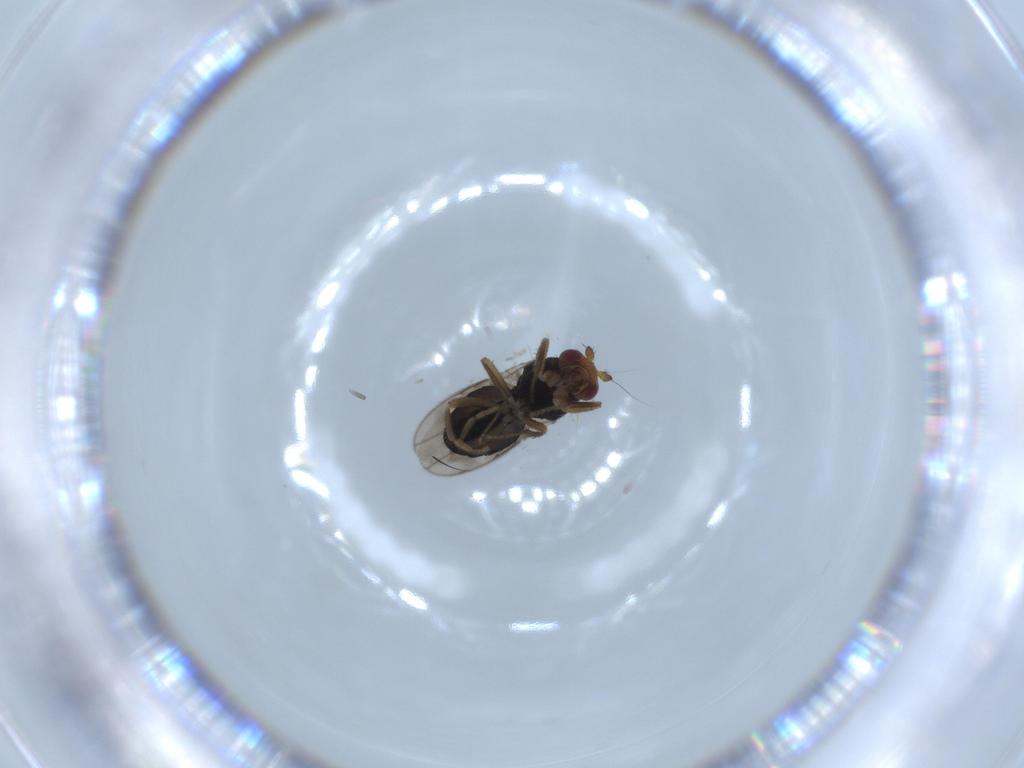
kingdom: Animalia
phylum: Arthropoda
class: Insecta
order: Diptera
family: Sphaeroceridae
